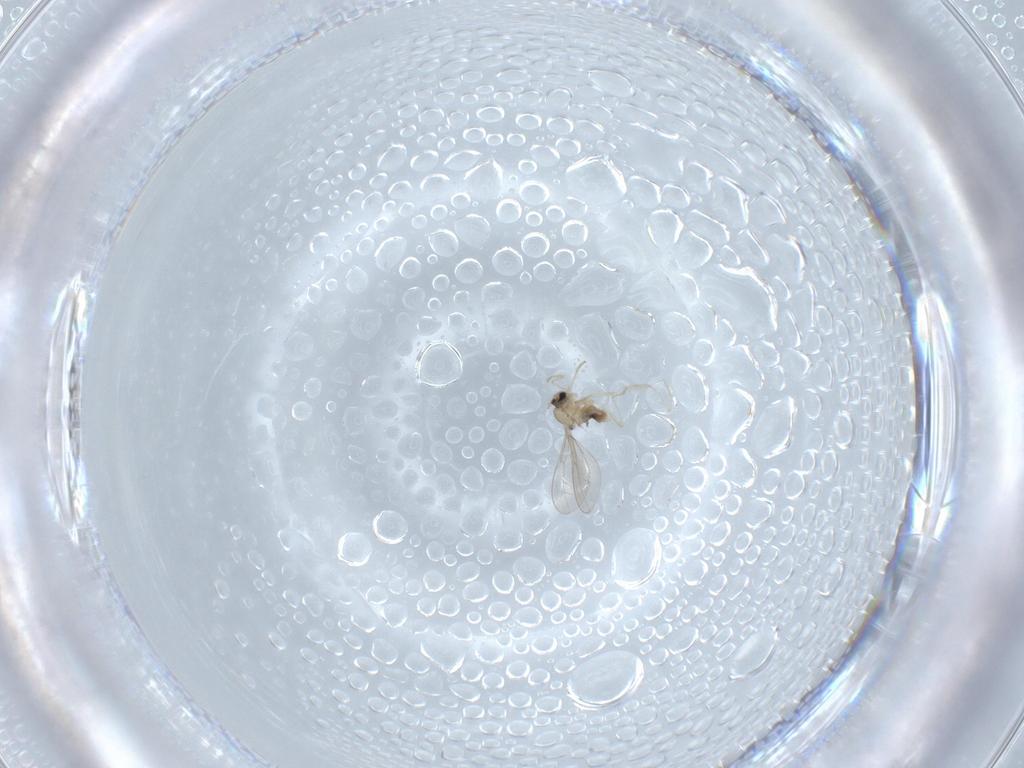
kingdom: Animalia
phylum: Arthropoda
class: Insecta
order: Diptera
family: Cecidomyiidae
